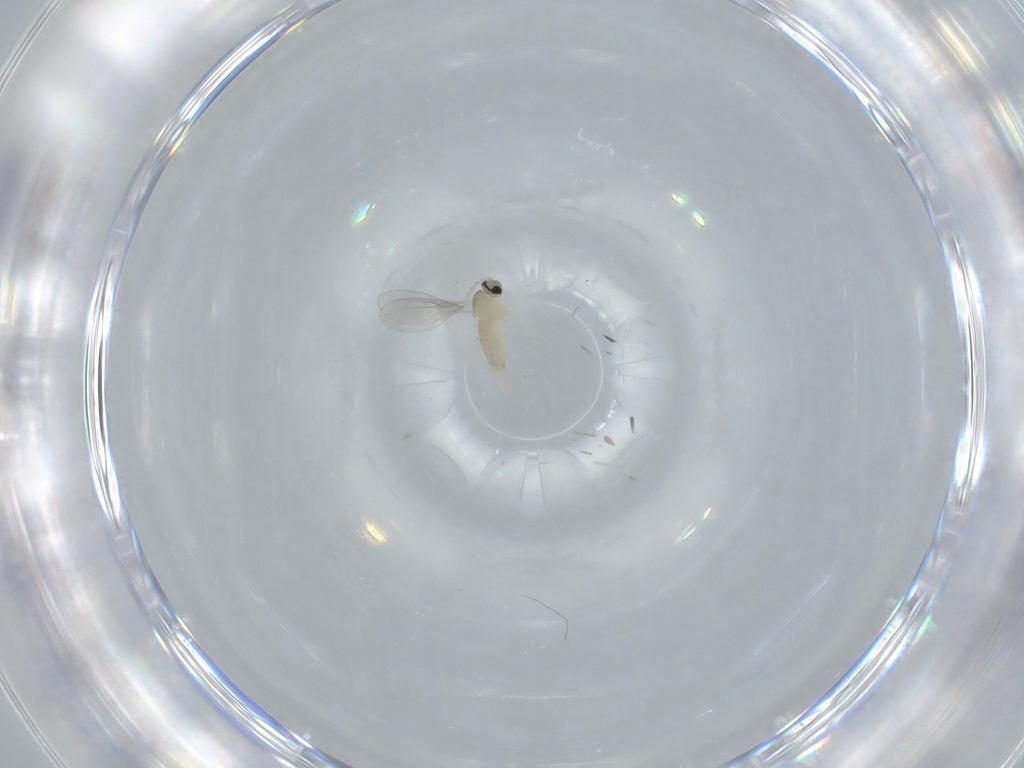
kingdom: Animalia
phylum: Arthropoda
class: Insecta
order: Diptera
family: Cecidomyiidae
